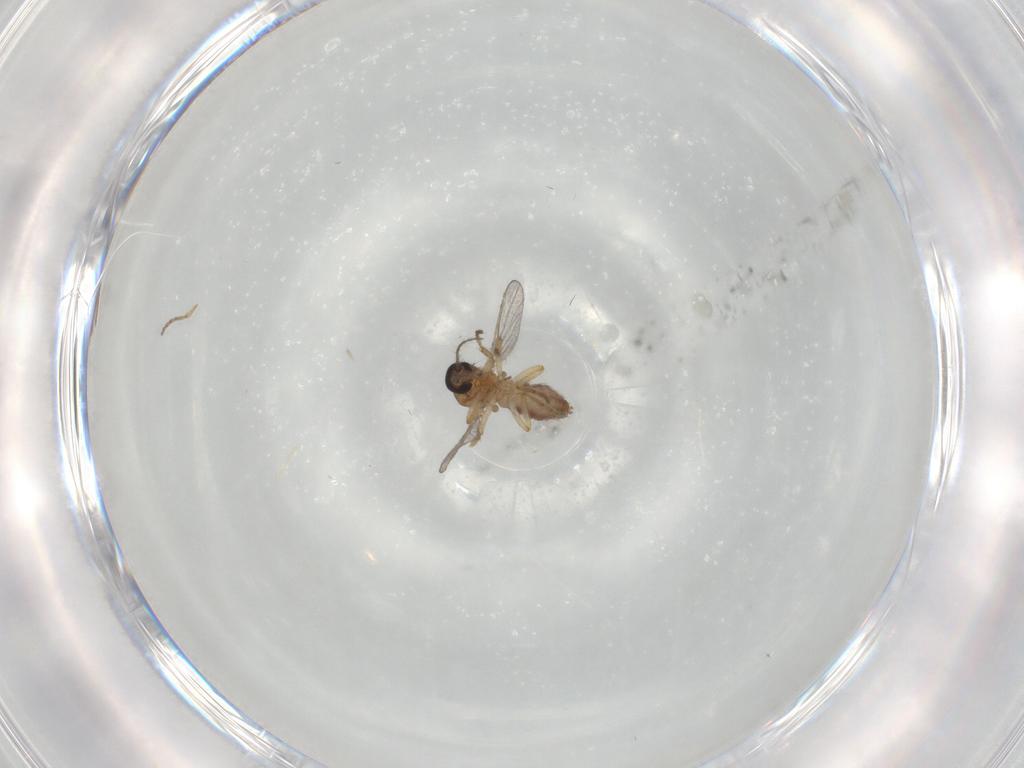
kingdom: Animalia
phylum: Arthropoda
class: Insecta
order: Diptera
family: Ceratopogonidae
